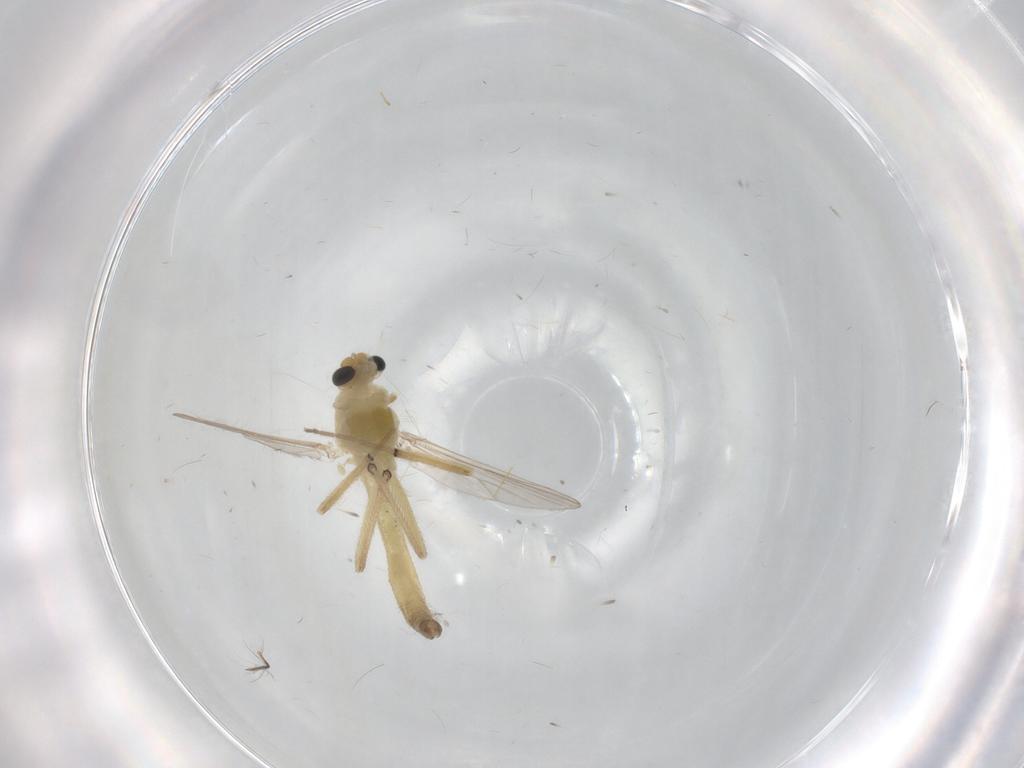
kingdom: Animalia
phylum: Arthropoda
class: Insecta
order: Diptera
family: Chironomidae
